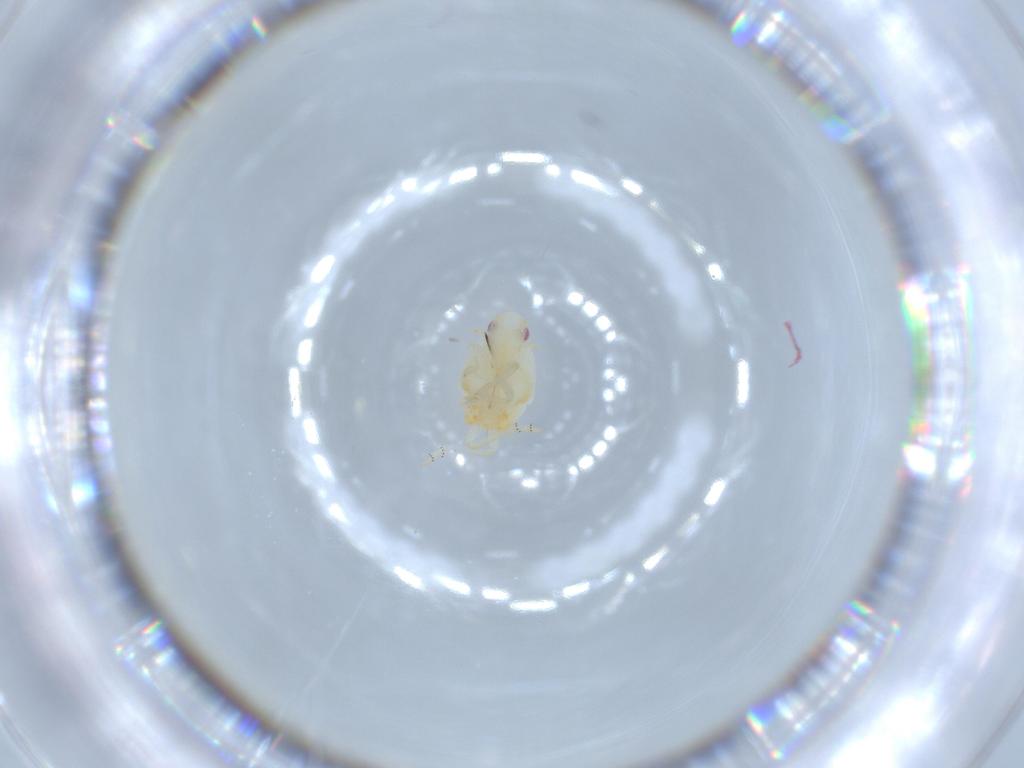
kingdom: Animalia
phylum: Arthropoda
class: Insecta
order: Hemiptera
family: Flatidae
